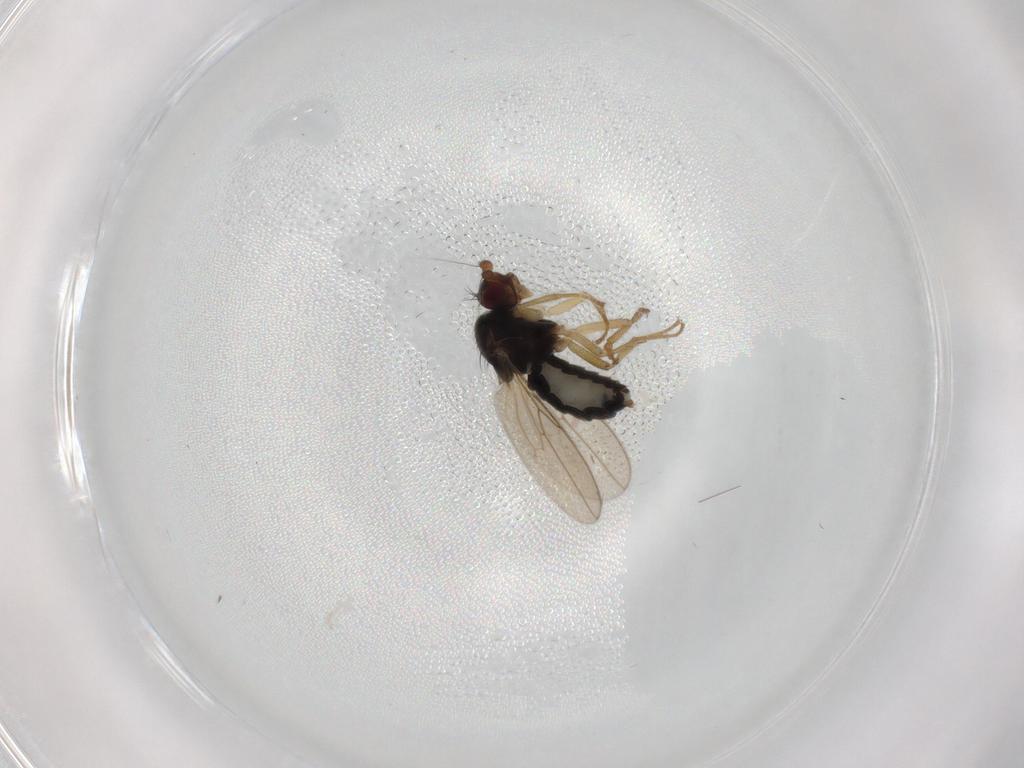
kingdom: Animalia
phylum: Arthropoda
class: Insecta
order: Diptera
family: Sphaeroceridae
